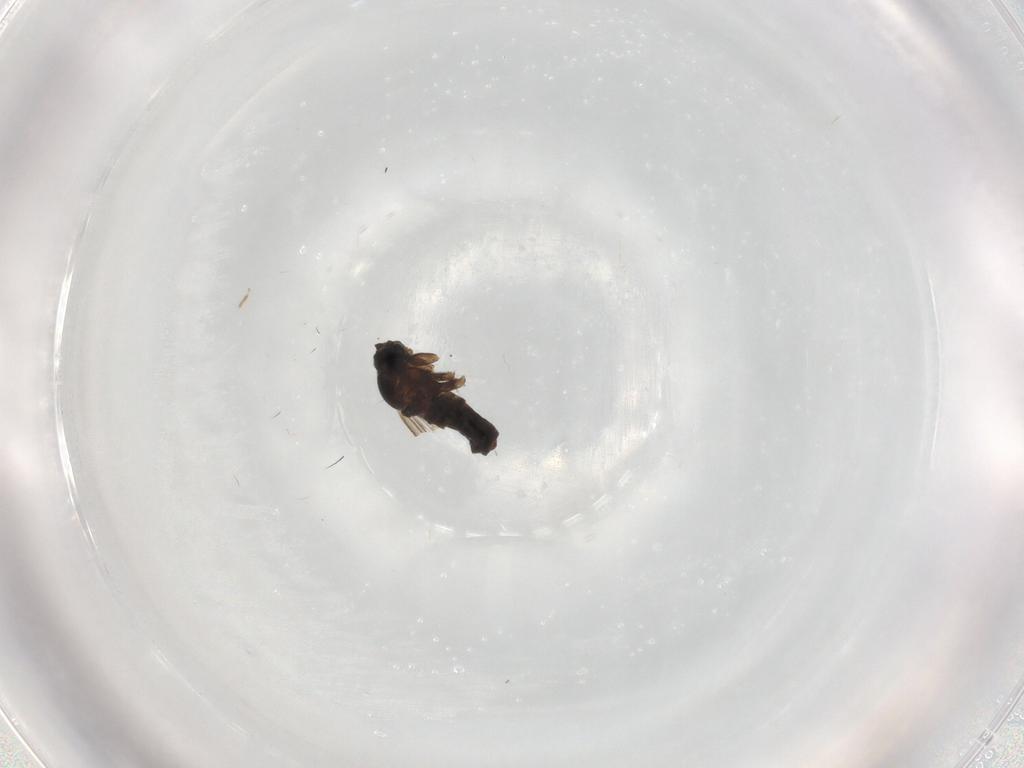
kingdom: Animalia
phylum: Arthropoda
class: Insecta
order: Diptera
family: Scatopsidae
